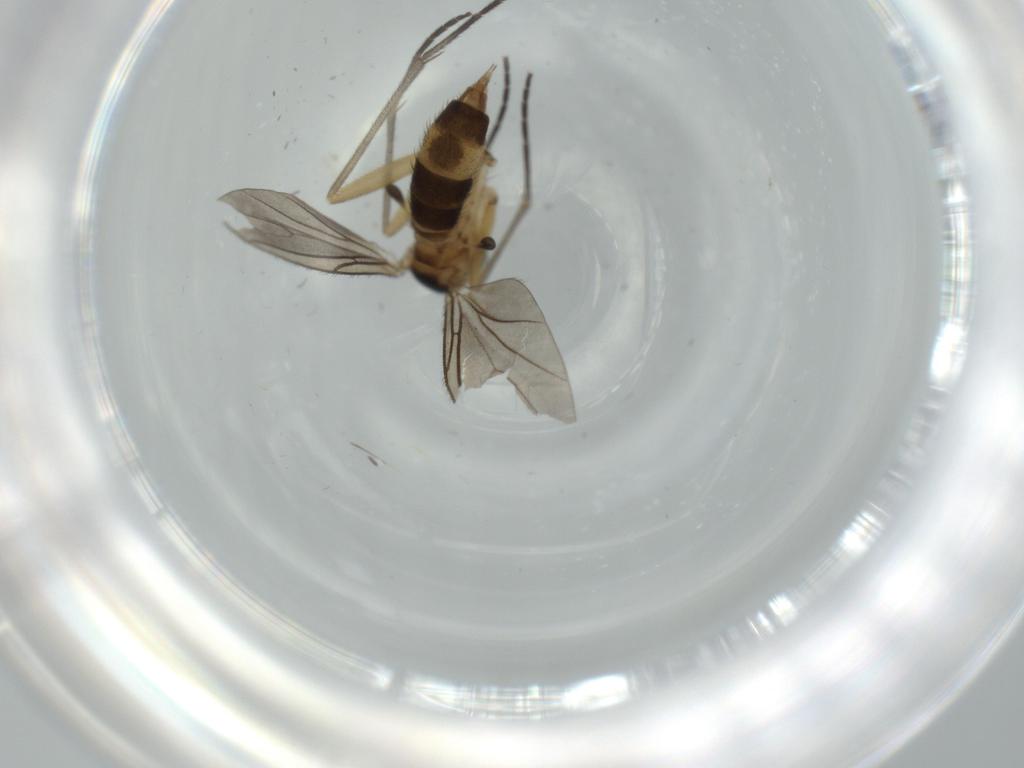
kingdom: Animalia
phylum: Arthropoda
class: Insecta
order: Diptera
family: Sciaridae
